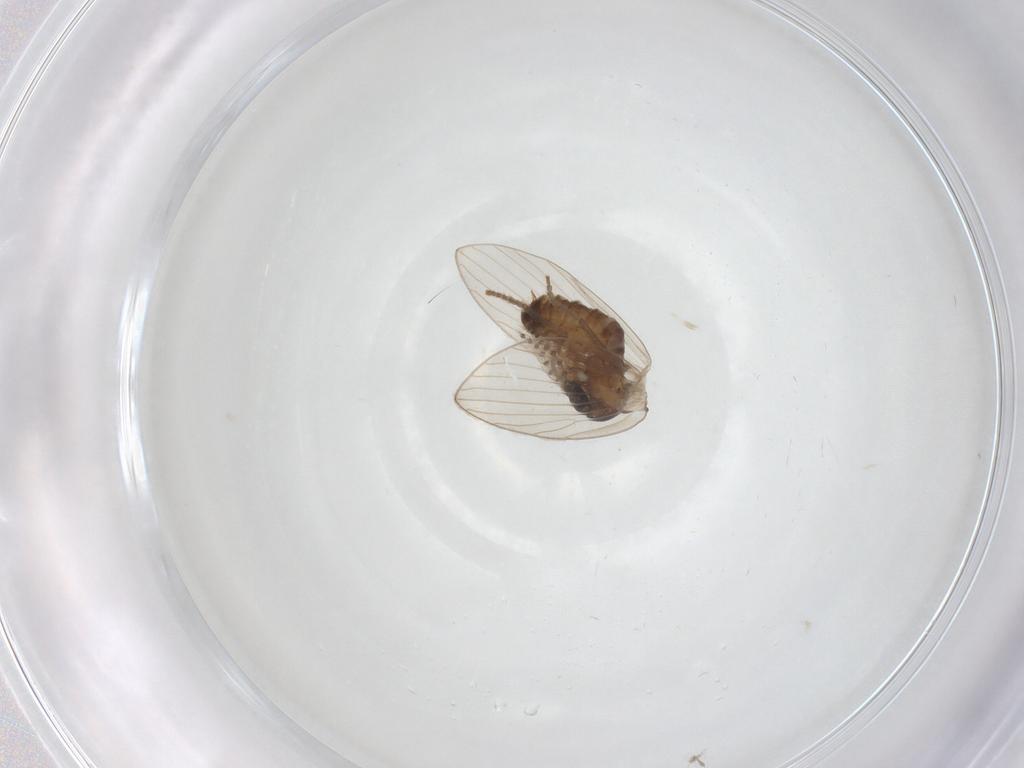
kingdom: Animalia
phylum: Arthropoda
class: Insecta
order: Diptera
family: Psychodidae
